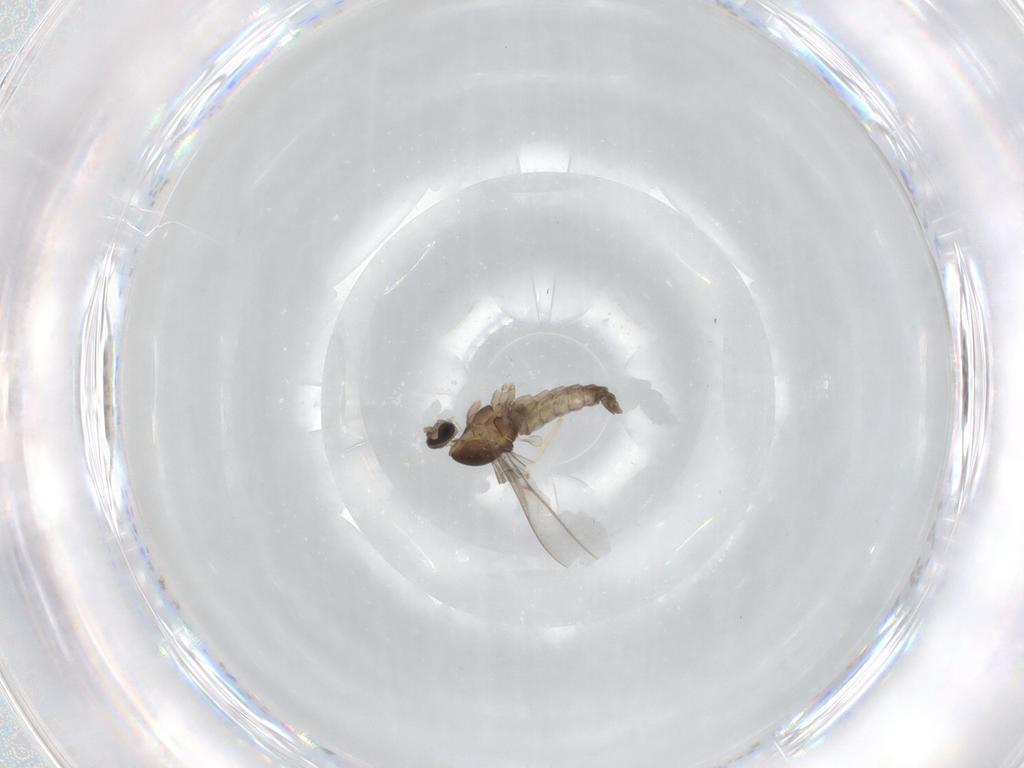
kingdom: Animalia
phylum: Arthropoda
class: Insecta
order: Diptera
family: Cecidomyiidae
